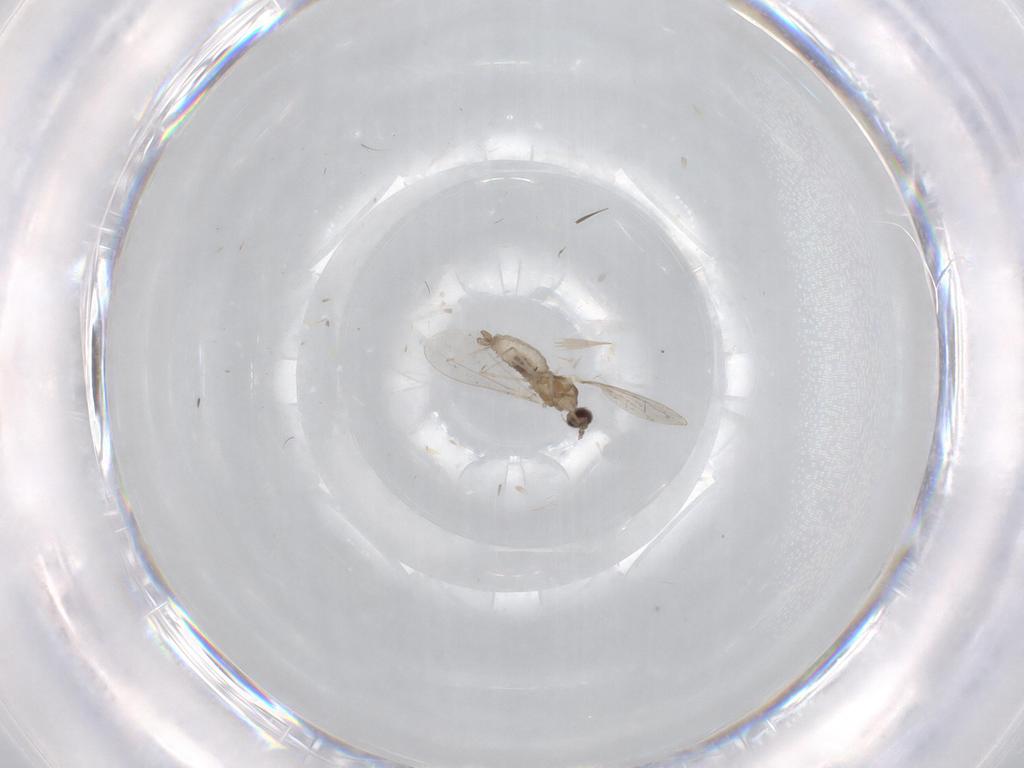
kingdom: Animalia
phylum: Arthropoda
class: Insecta
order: Diptera
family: Cecidomyiidae
